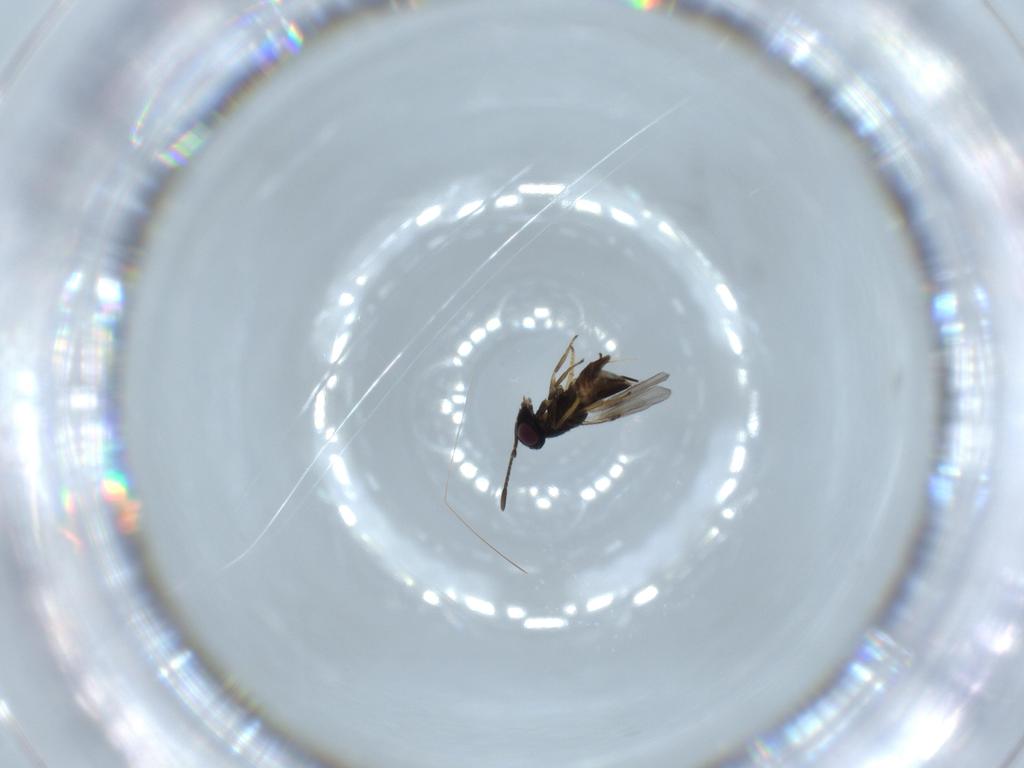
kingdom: Animalia
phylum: Arthropoda
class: Insecta
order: Hymenoptera
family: Encyrtidae
